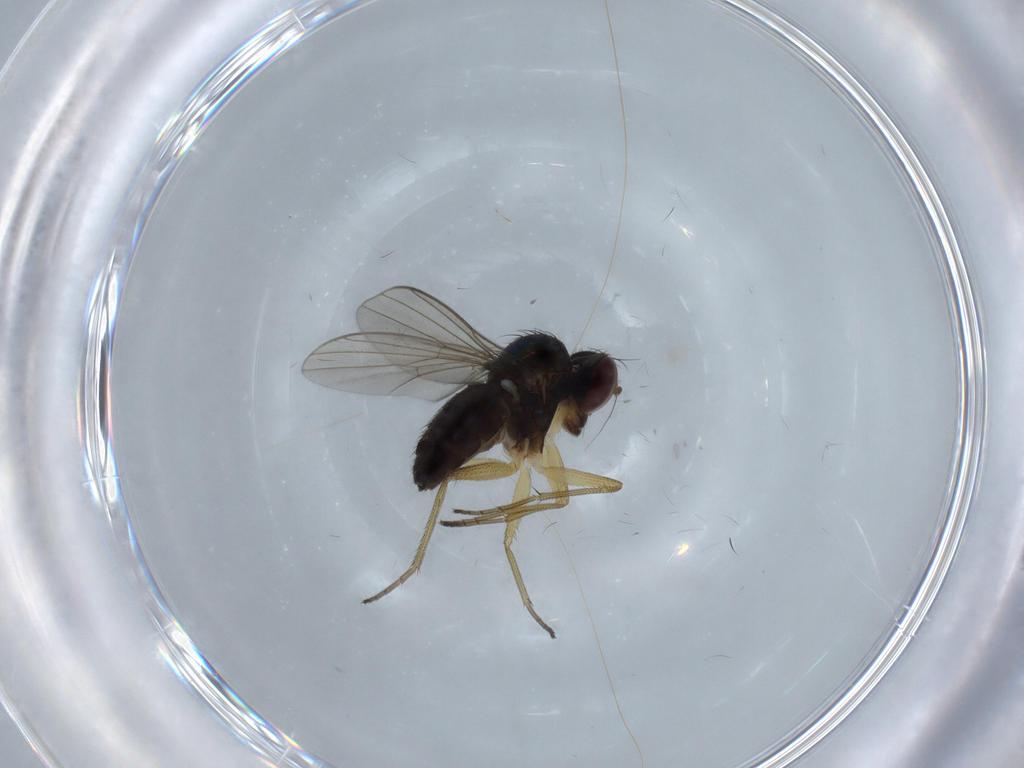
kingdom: Animalia
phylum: Arthropoda
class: Insecta
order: Diptera
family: Dolichopodidae
